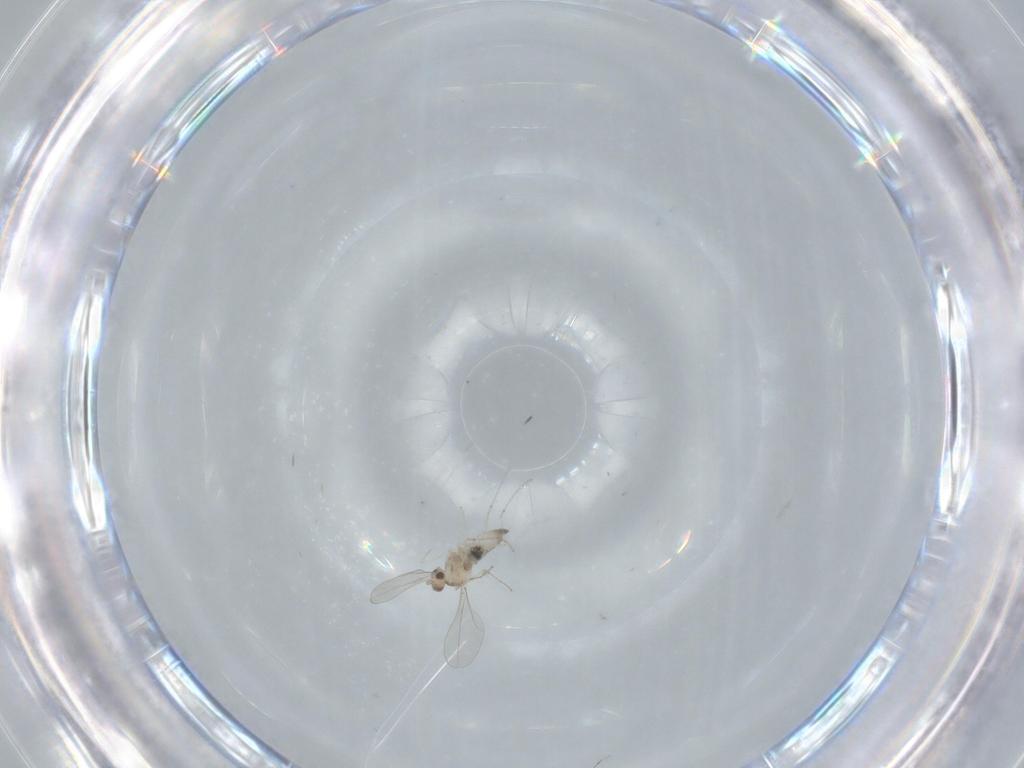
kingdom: Animalia
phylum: Arthropoda
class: Insecta
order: Diptera
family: Cecidomyiidae
